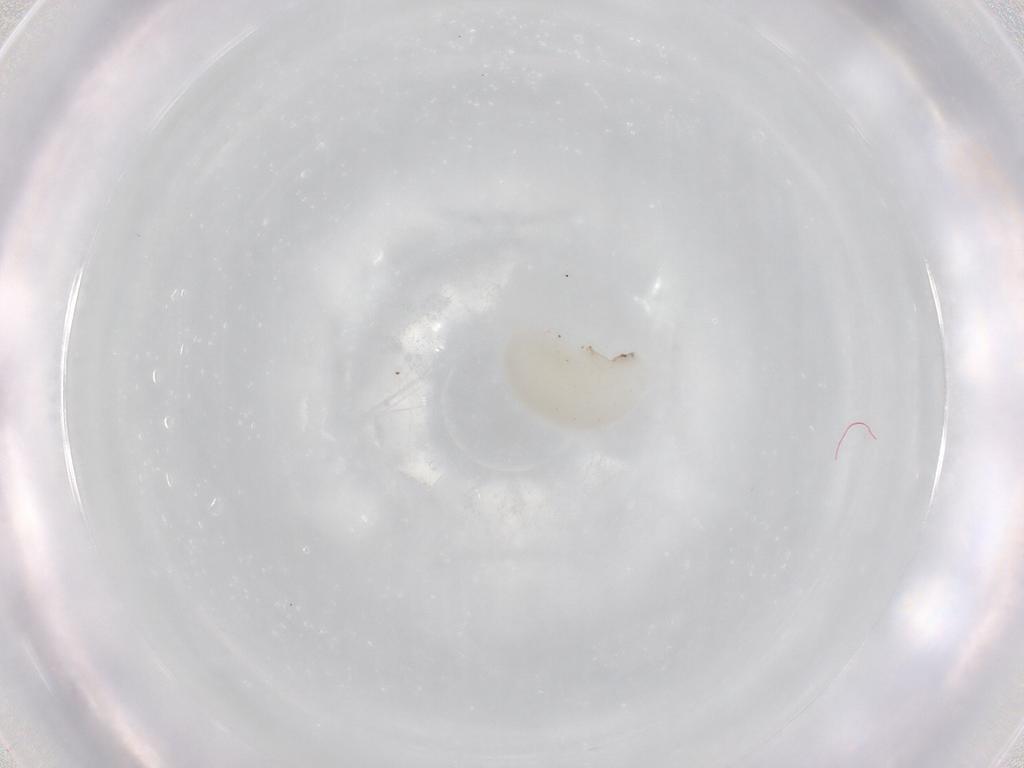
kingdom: Animalia
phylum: Arthropoda
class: Insecta
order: Hymenoptera
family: Eulophidae
